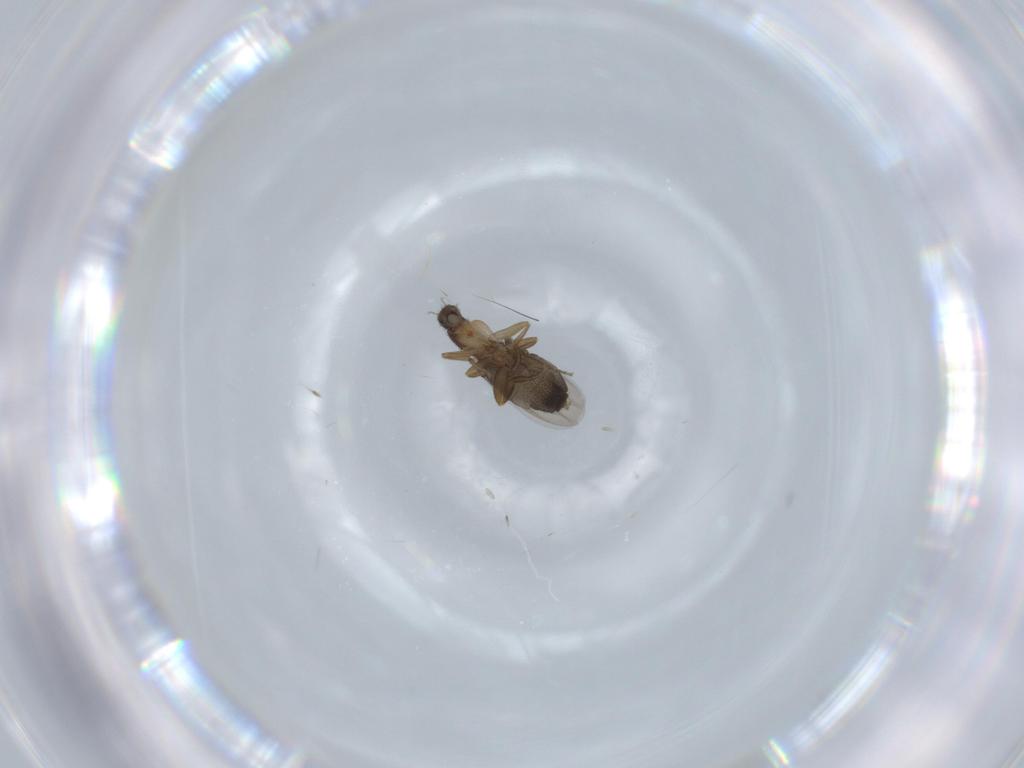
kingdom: Animalia
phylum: Arthropoda
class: Insecta
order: Diptera
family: Phoridae
